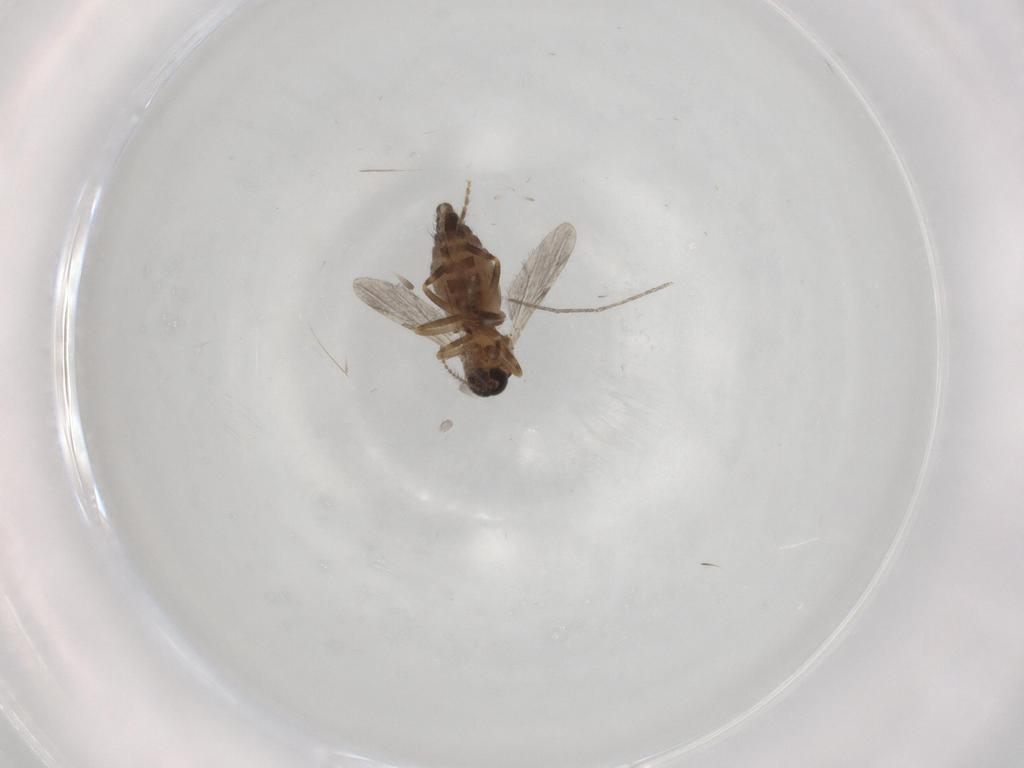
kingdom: Animalia
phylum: Arthropoda
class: Insecta
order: Diptera
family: Ceratopogonidae
